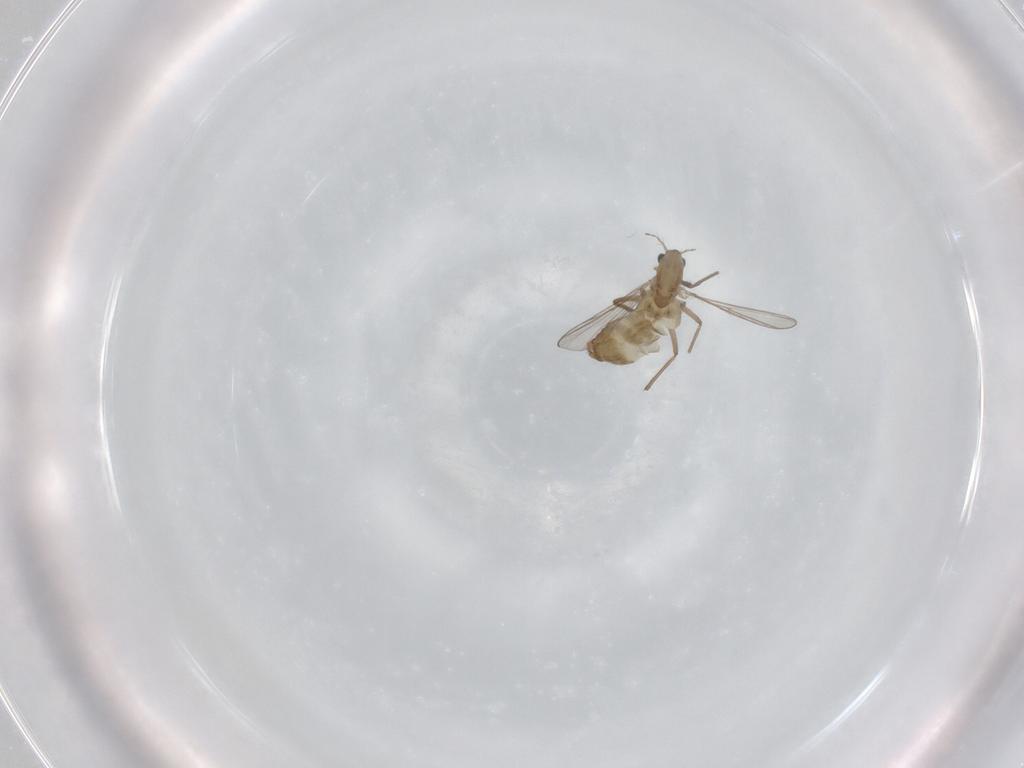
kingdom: Animalia
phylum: Arthropoda
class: Insecta
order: Diptera
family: Chironomidae
